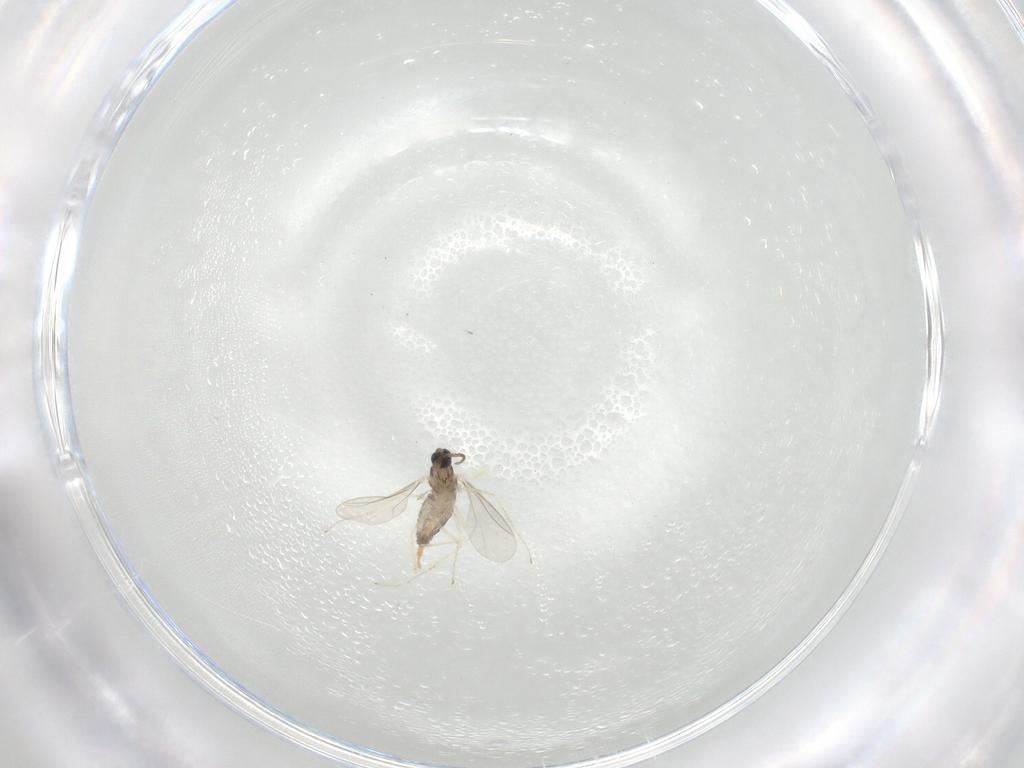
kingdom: Animalia
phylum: Arthropoda
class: Insecta
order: Diptera
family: Cecidomyiidae
